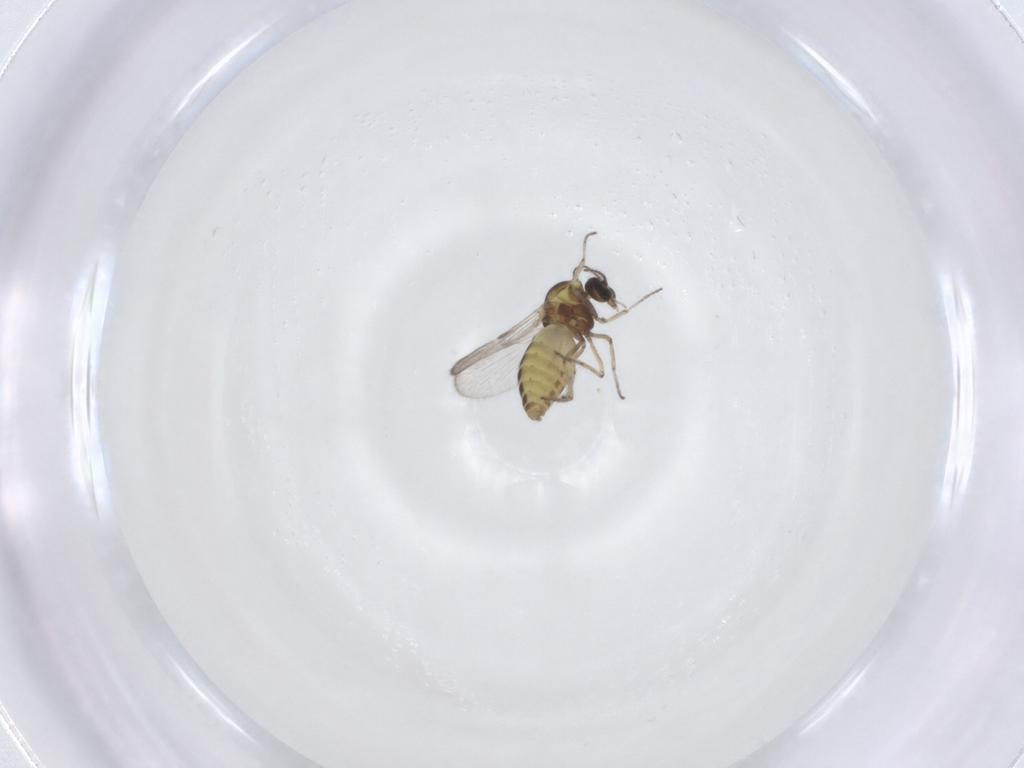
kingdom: Animalia
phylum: Arthropoda
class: Insecta
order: Diptera
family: Ceratopogonidae
